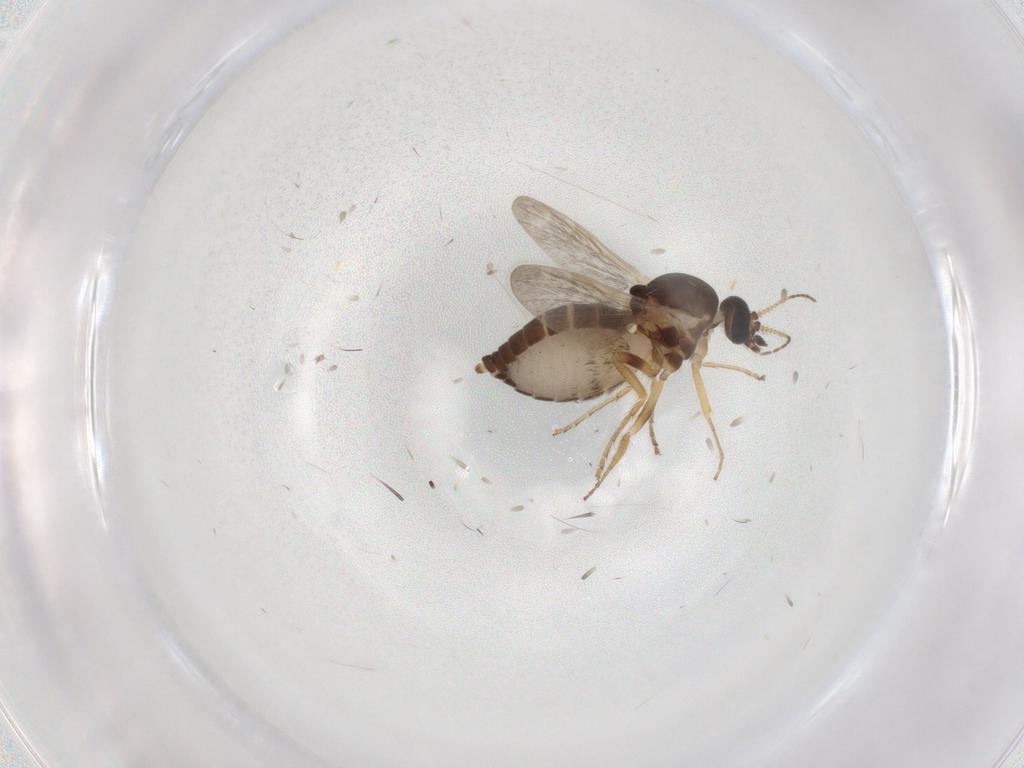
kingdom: Animalia
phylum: Arthropoda
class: Insecta
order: Diptera
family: Ceratopogonidae
